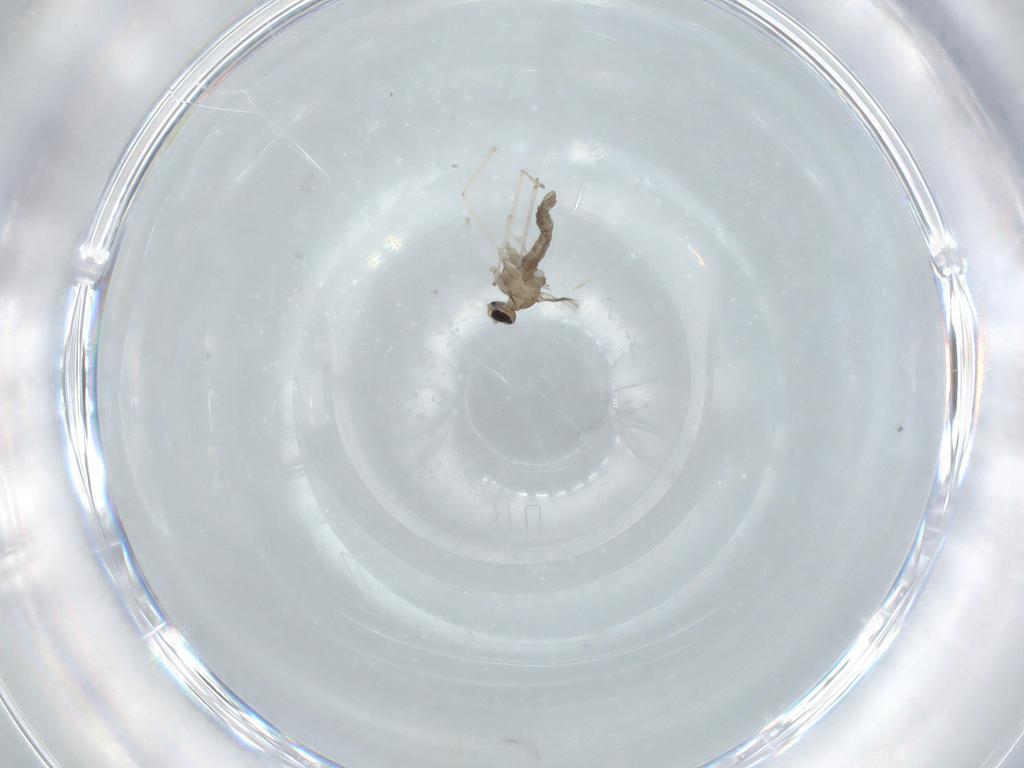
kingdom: Animalia
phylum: Arthropoda
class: Insecta
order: Diptera
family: Cecidomyiidae
